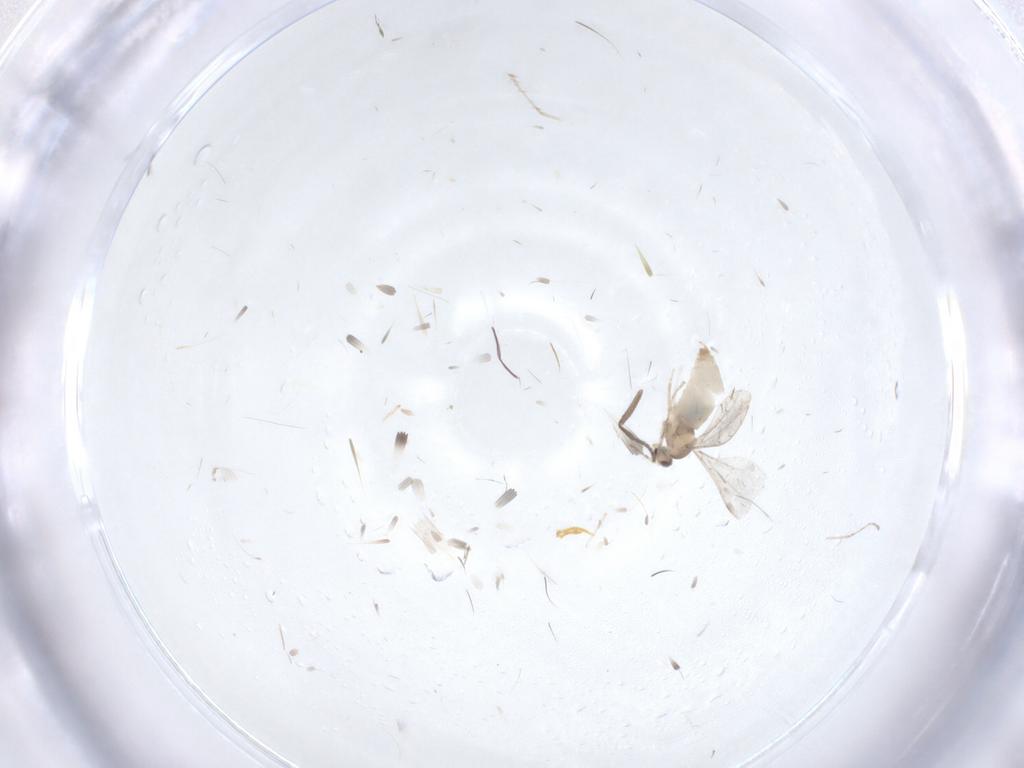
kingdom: Animalia
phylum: Arthropoda
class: Insecta
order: Diptera
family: Cecidomyiidae
